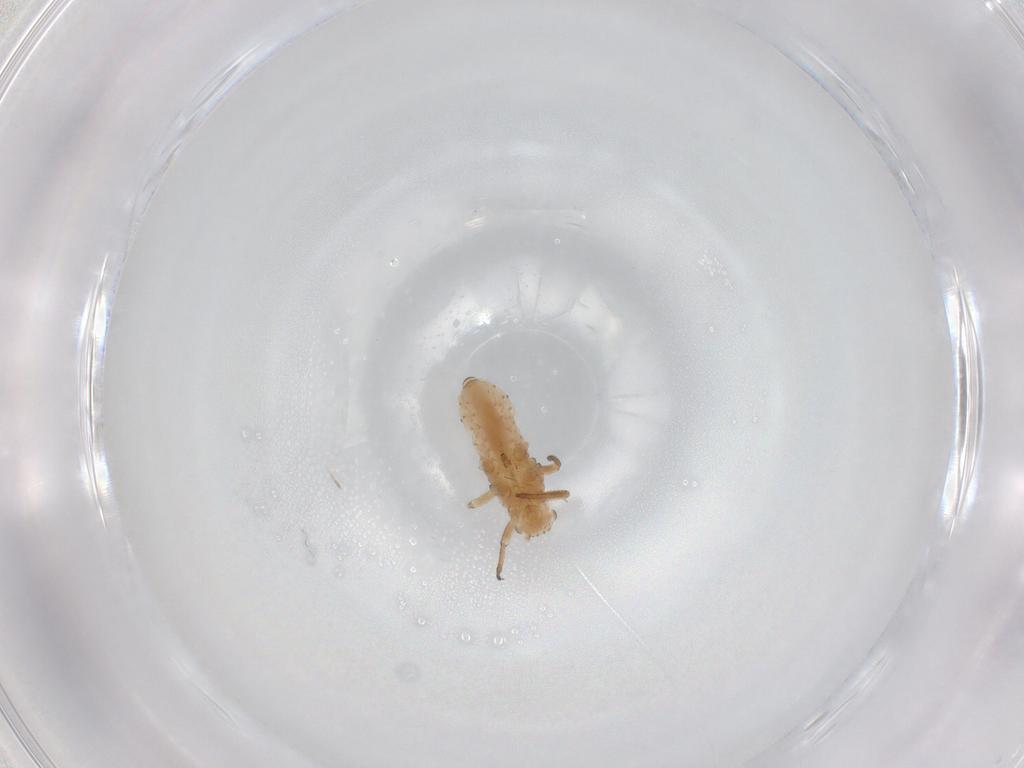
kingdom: Animalia
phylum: Arthropoda
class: Insecta
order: Hemiptera
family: Aphididae
